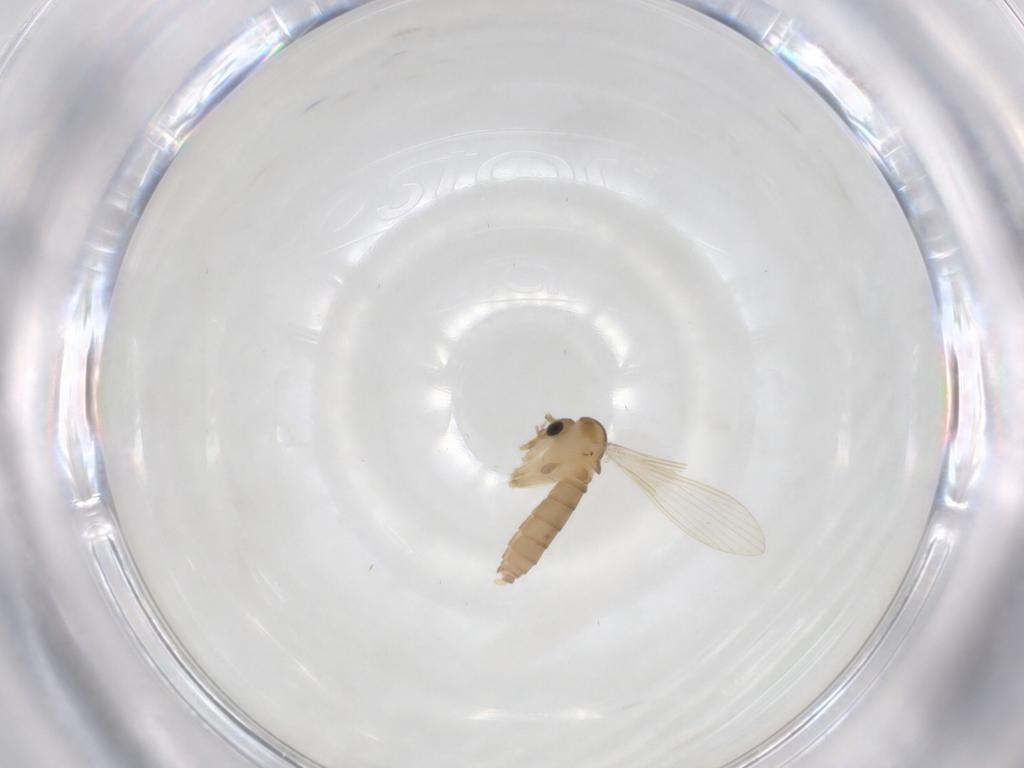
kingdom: Animalia
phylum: Arthropoda
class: Insecta
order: Diptera
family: Psychodidae
